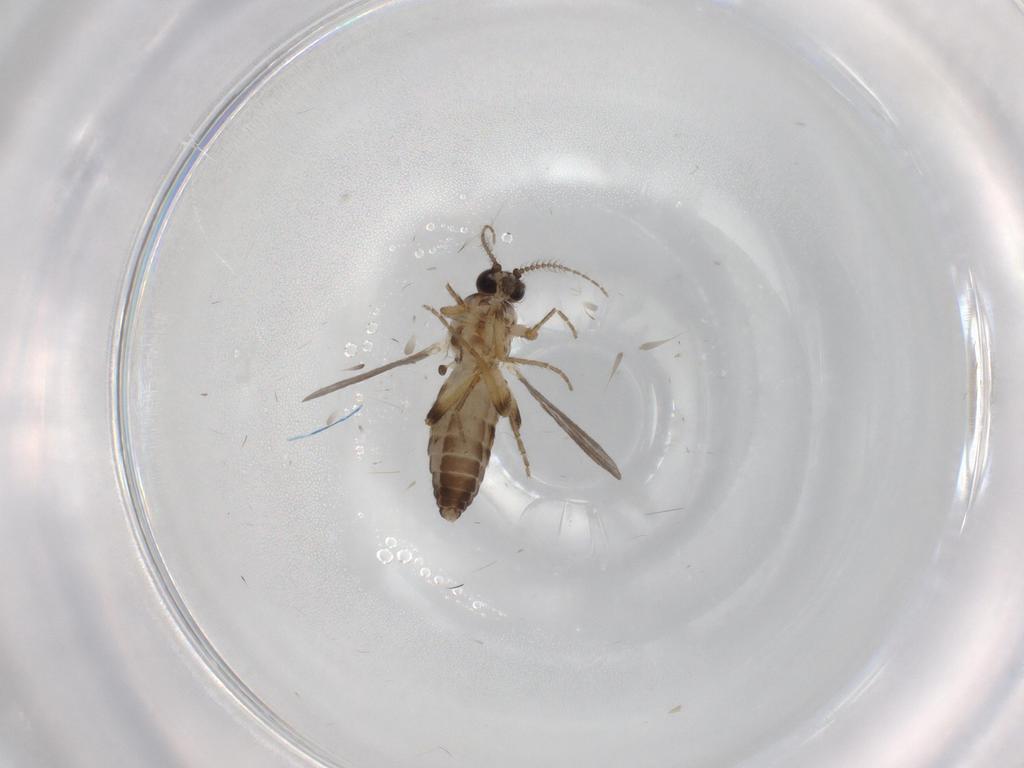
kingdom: Animalia
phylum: Arthropoda
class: Insecta
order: Diptera
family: Ceratopogonidae
